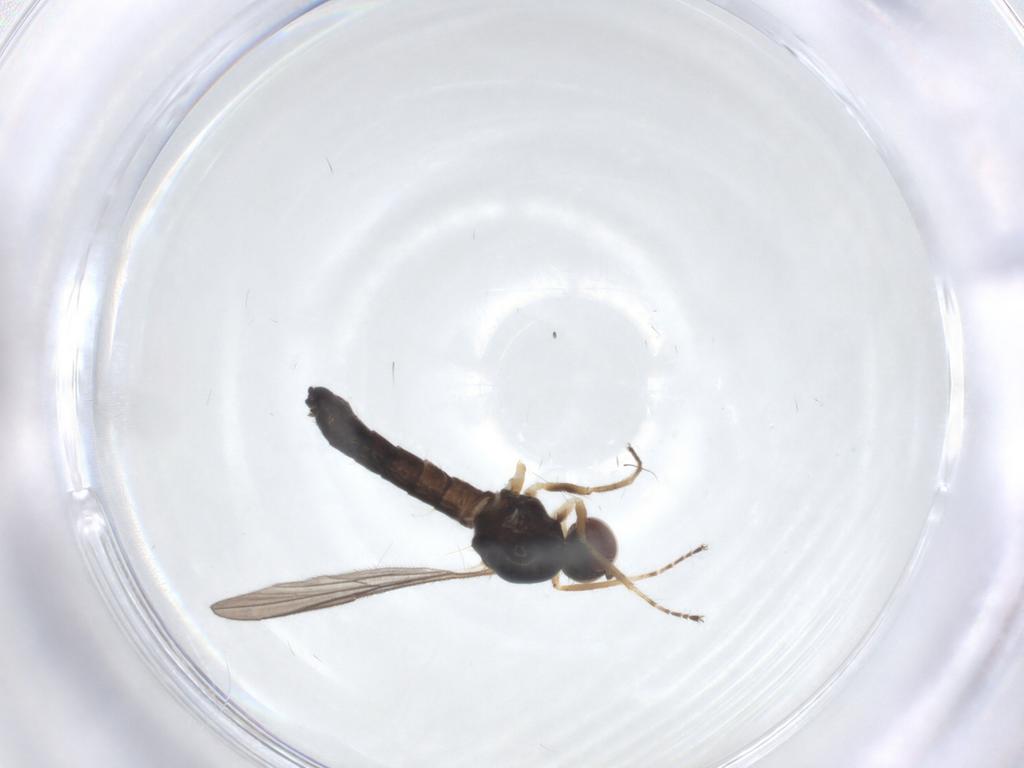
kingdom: Animalia
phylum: Arthropoda
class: Insecta
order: Diptera
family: Hybotidae
